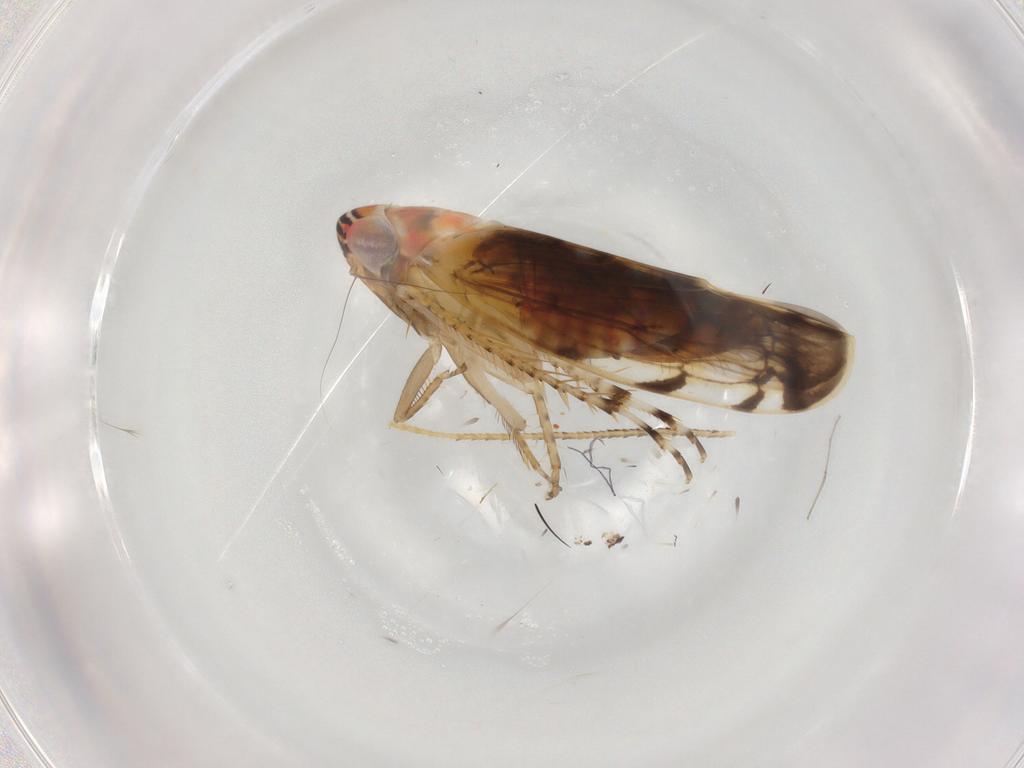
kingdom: Animalia
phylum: Arthropoda
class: Insecta
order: Hemiptera
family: Cicadellidae
